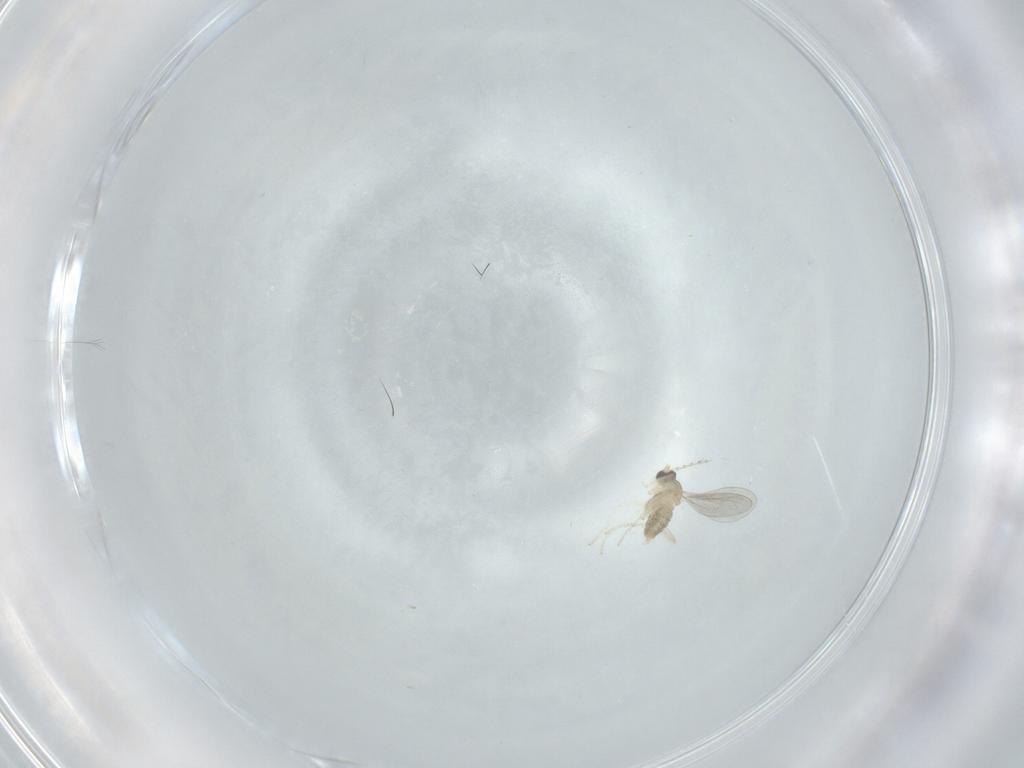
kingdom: Animalia
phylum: Arthropoda
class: Insecta
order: Diptera
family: Cecidomyiidae
